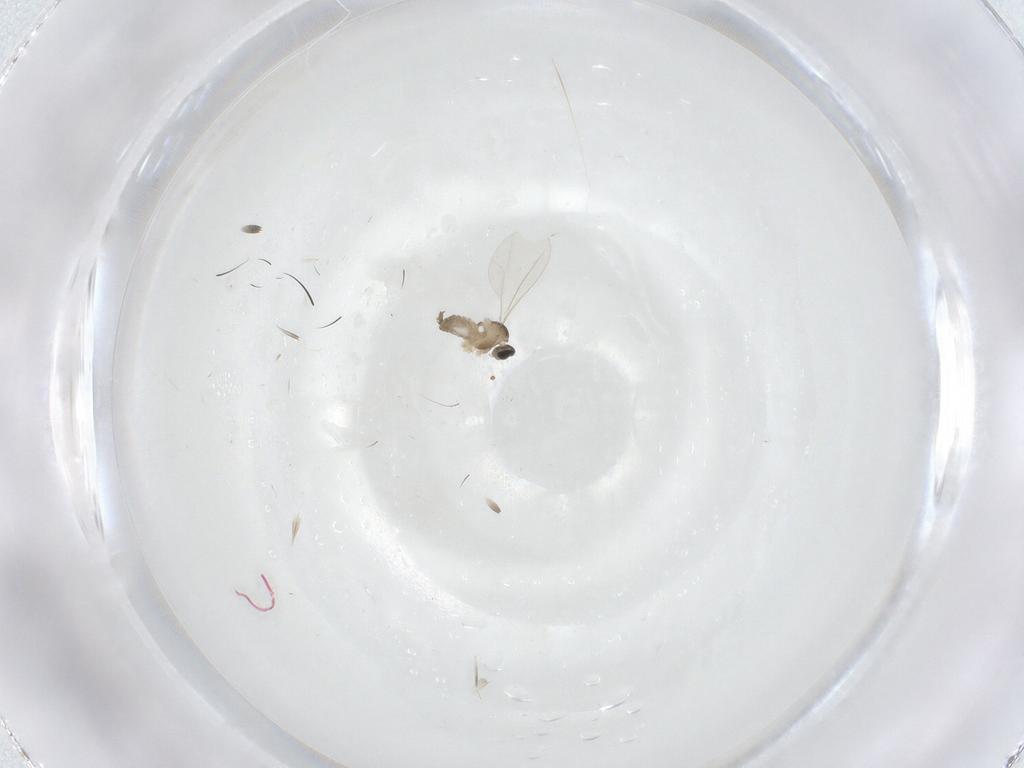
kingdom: Animalia
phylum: Arthropoda
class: Insecta
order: Diptera
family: Cecidomyiidae
